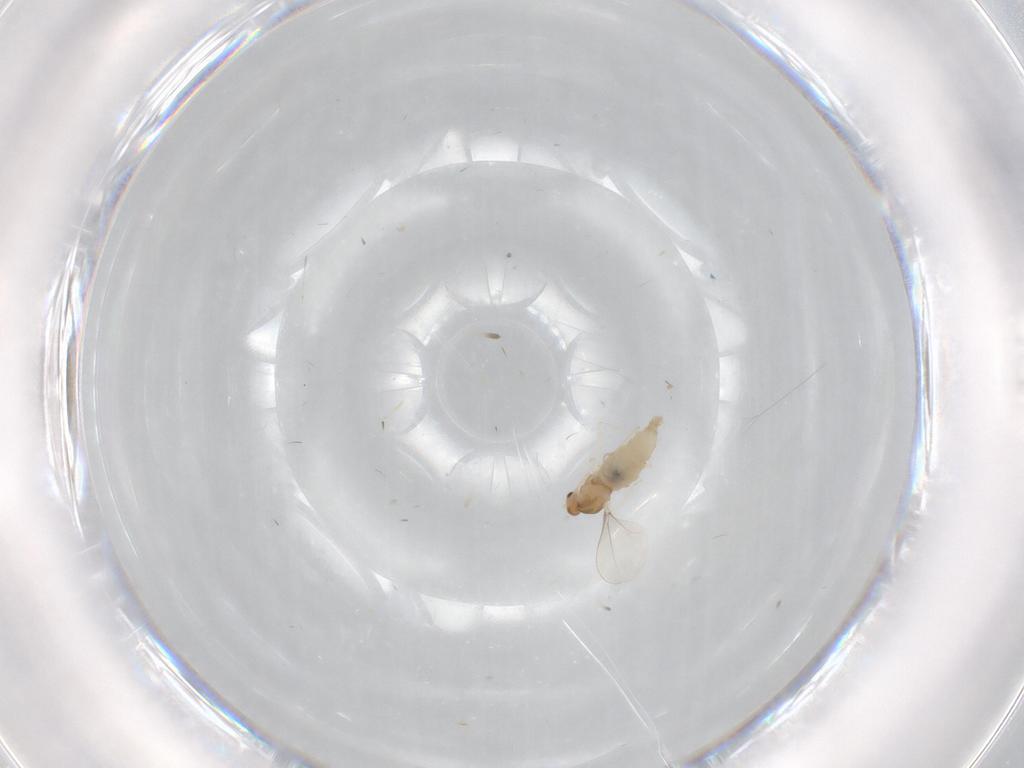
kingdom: Animalia
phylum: Arthropoda
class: Insecta
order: Diptera
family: Cecidomyiidae
